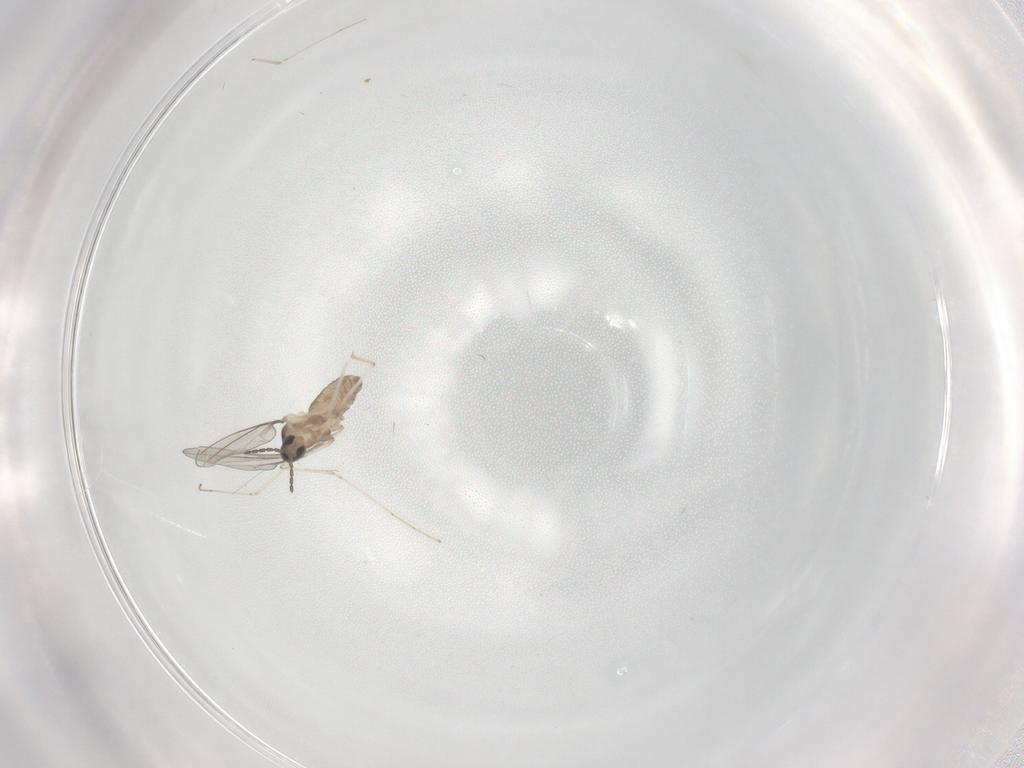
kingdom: Animalia
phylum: Arthropoda
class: Insecta
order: Diptera
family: Cecidomyiidae
